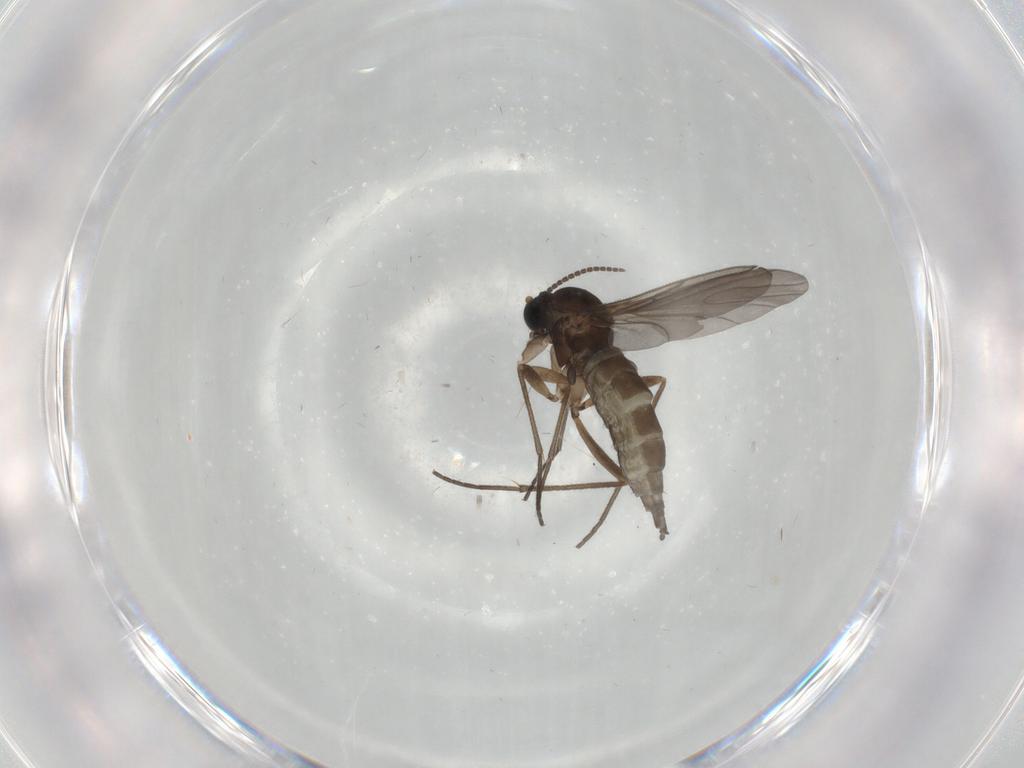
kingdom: Animalia
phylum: Arthropoda
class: Insecta
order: Diptera
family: Sciaridae
